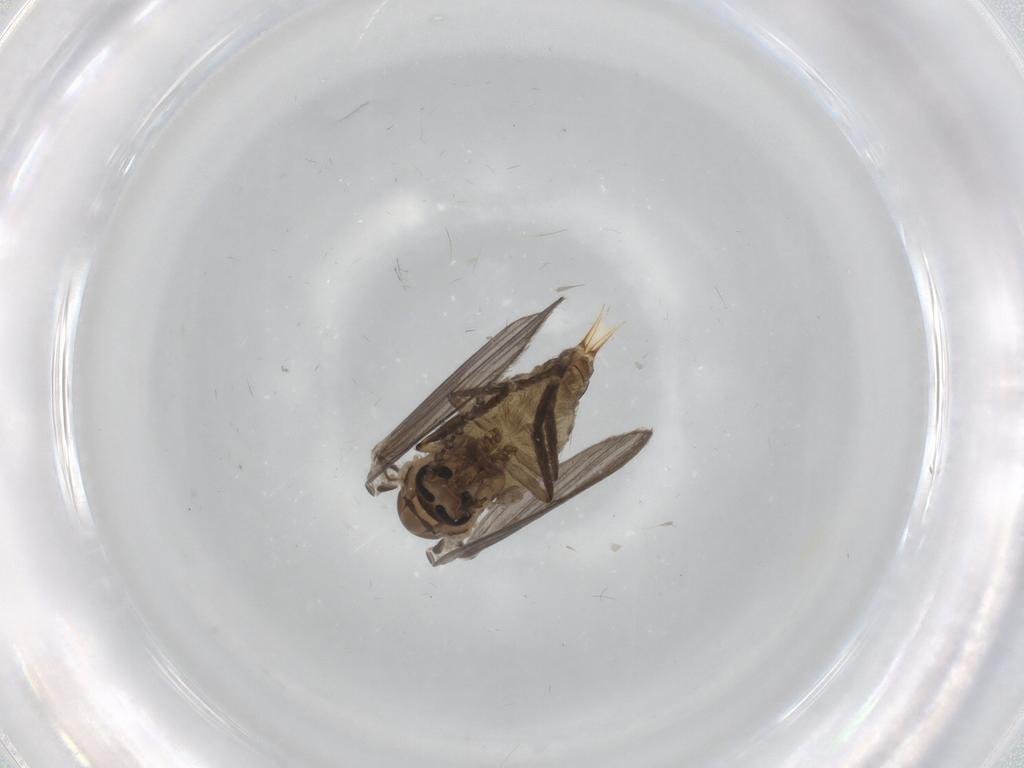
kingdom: Animalia
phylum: Arthropoda
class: Insecta
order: Diptera
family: Psychodidae
